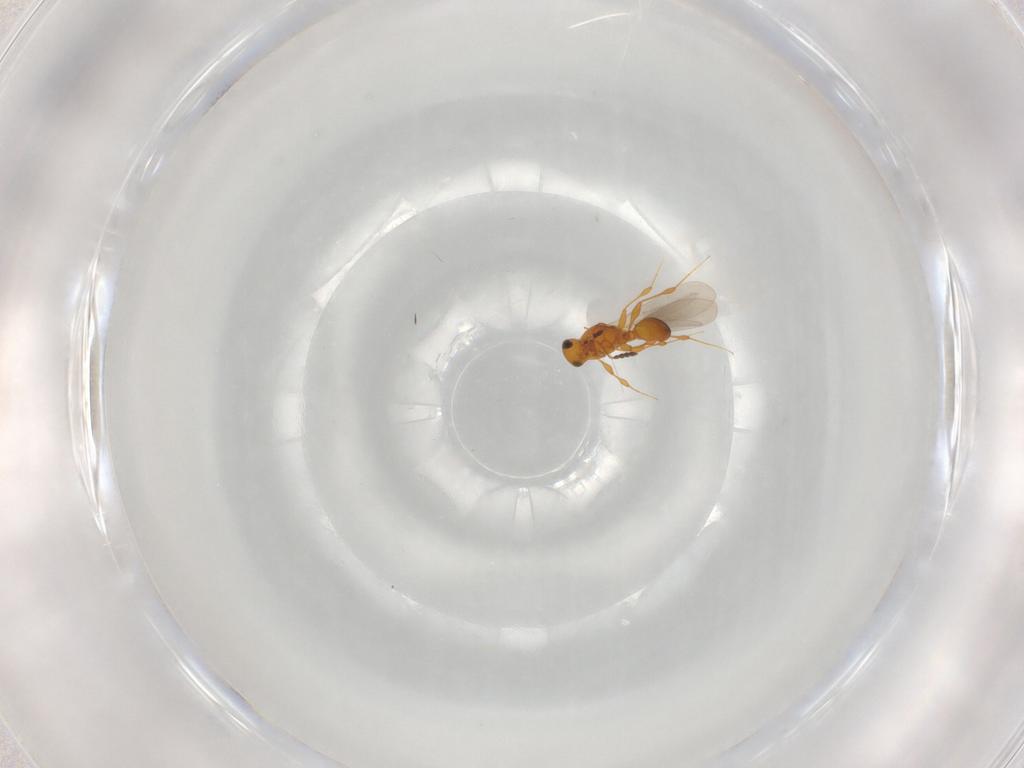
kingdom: Animalia
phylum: Arthropoda
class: Insecta
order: Hymenoptera
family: Platygastridae
